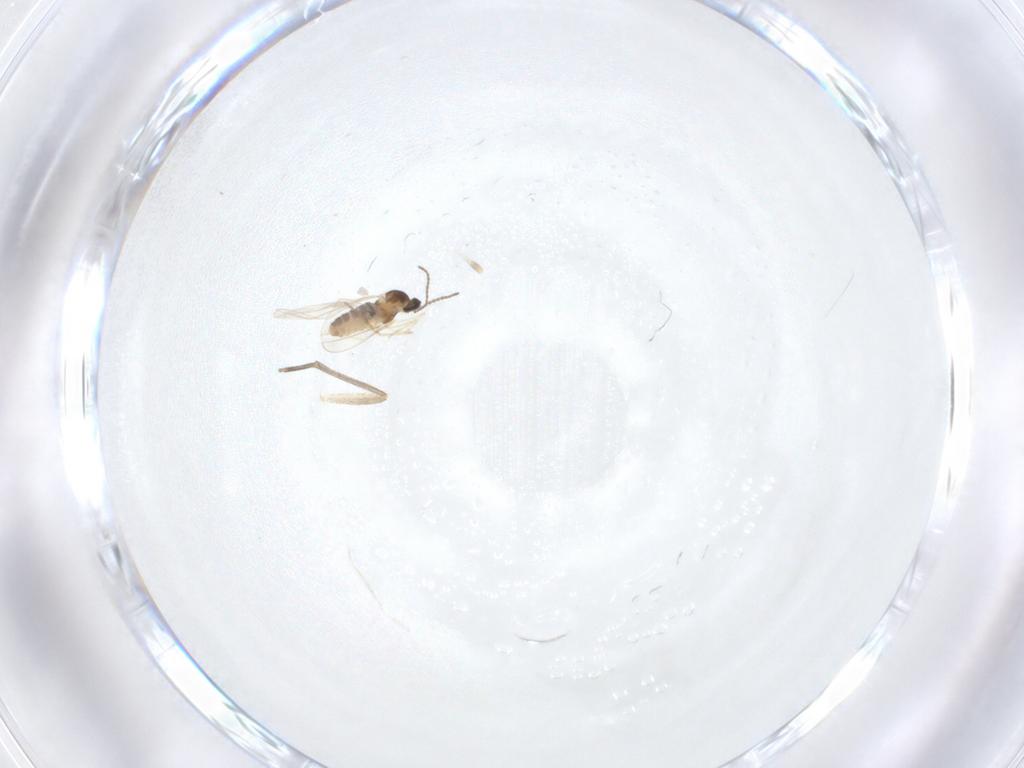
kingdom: Animalia
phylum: Arthropoda
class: Insecta
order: Diptera
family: Cecidomyiidae
